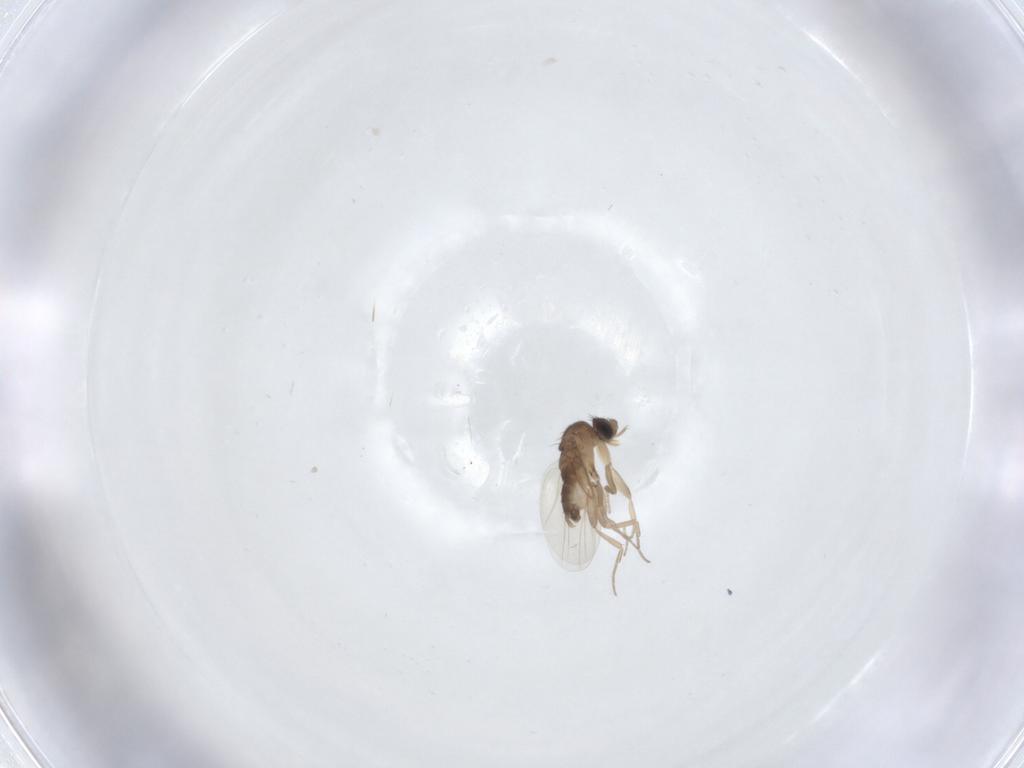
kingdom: Animalia
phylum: Arthropoda
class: Insecta
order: Diptera
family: Phoridae
